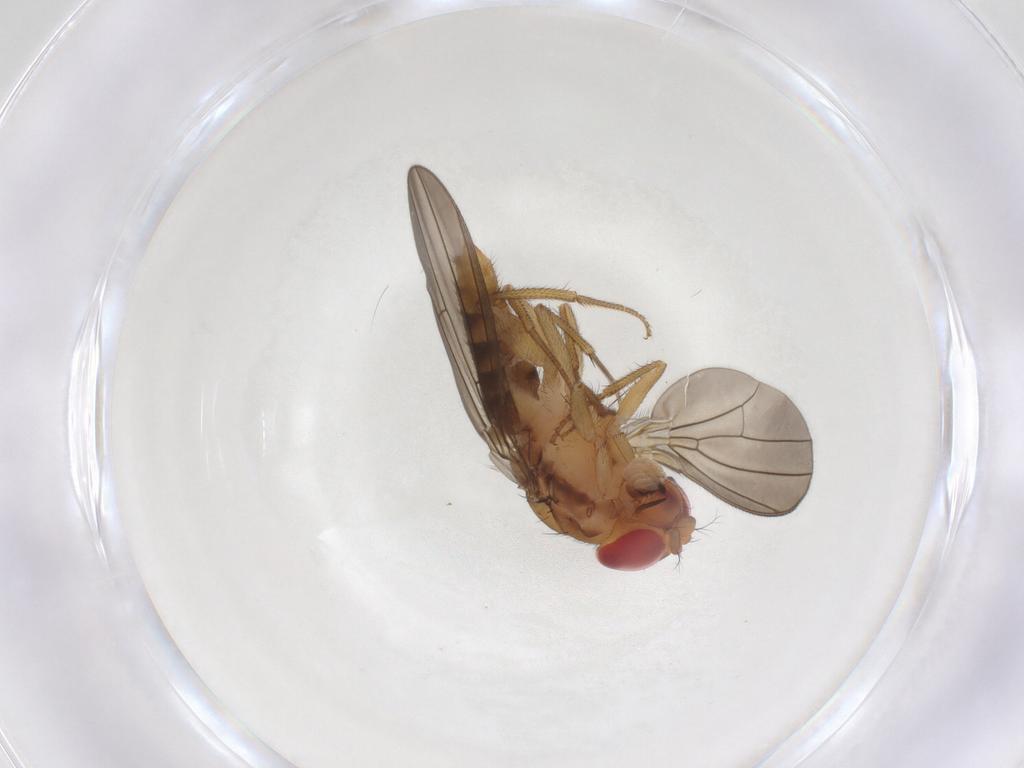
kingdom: Animalia
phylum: Arthropoda
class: Insecta
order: Diptera
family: Drosophilidae
